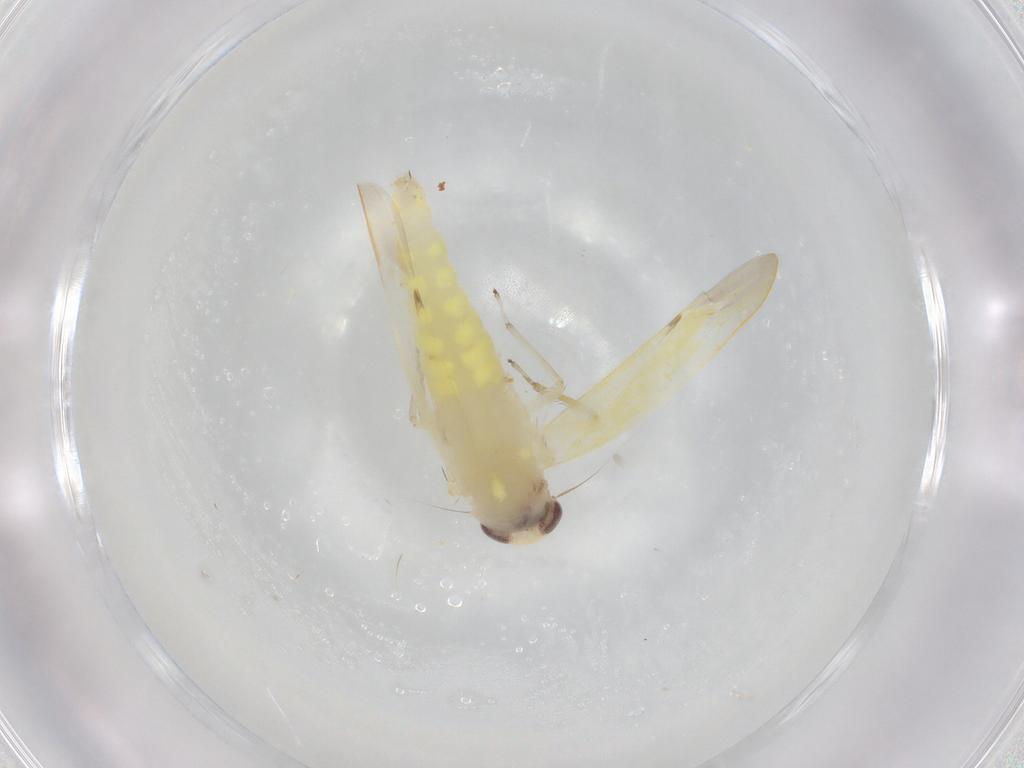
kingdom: Animalia
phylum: Arthropoda
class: Insecta
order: Hemiptera
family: Cicadellidae
